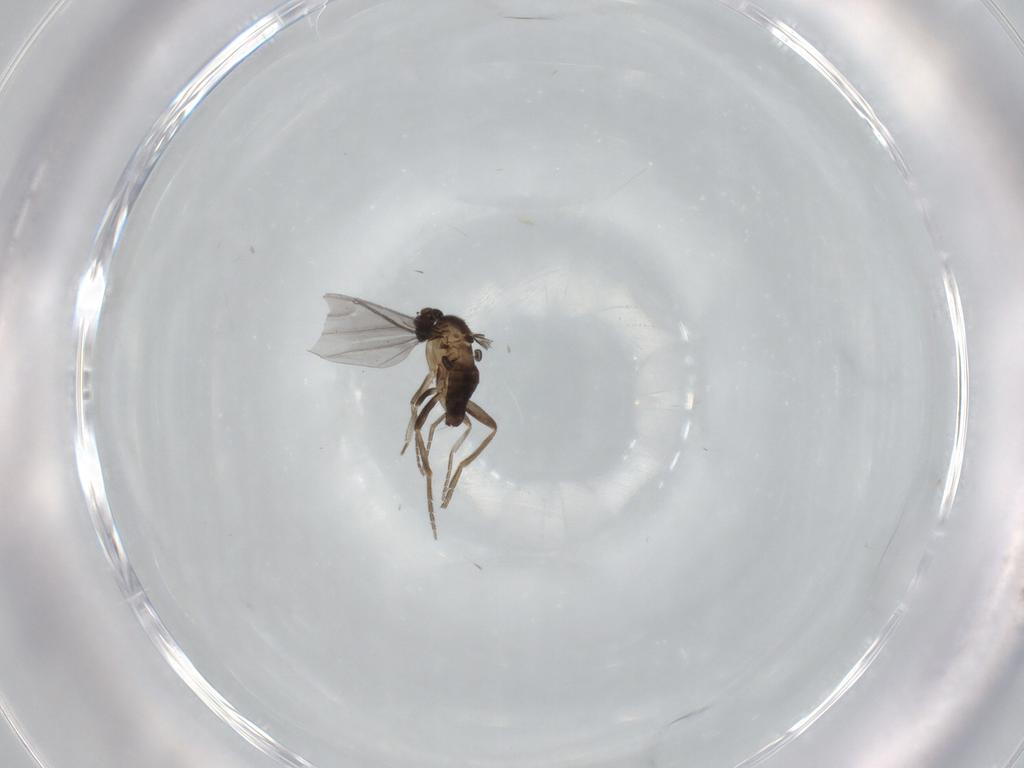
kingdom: Animalia
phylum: Arthropoda
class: Insecta
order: Diptera
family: Phoridae
